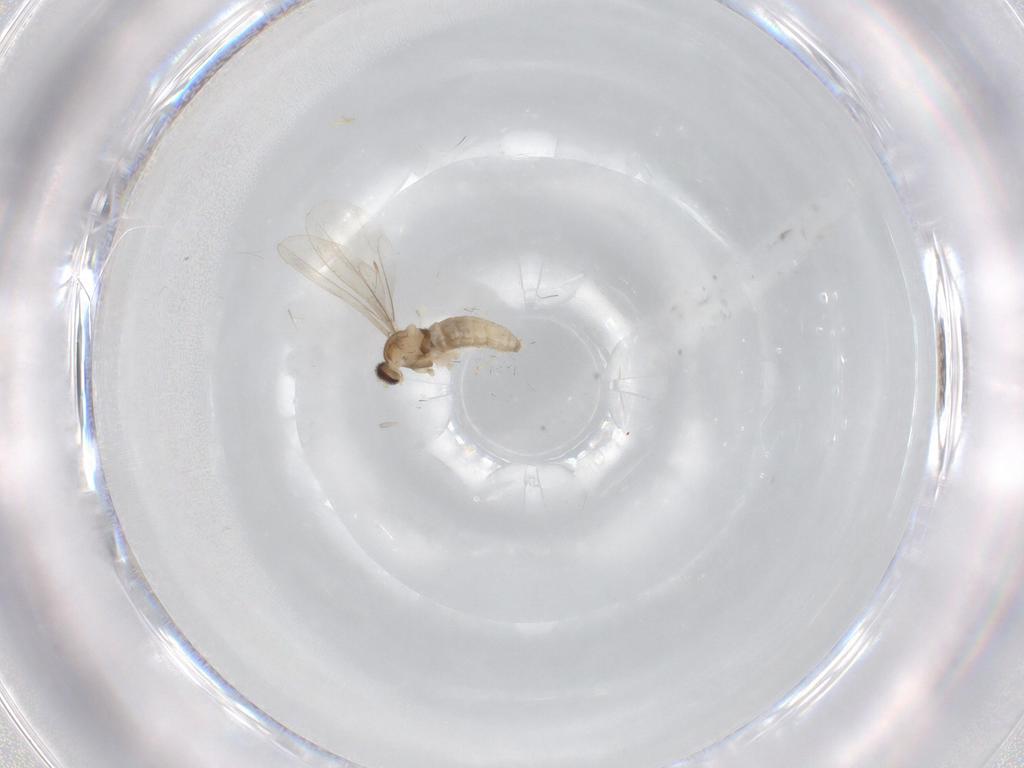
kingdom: Animalia
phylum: Arthropoda
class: Insecta
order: Diptera
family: Cecidomyiidae
